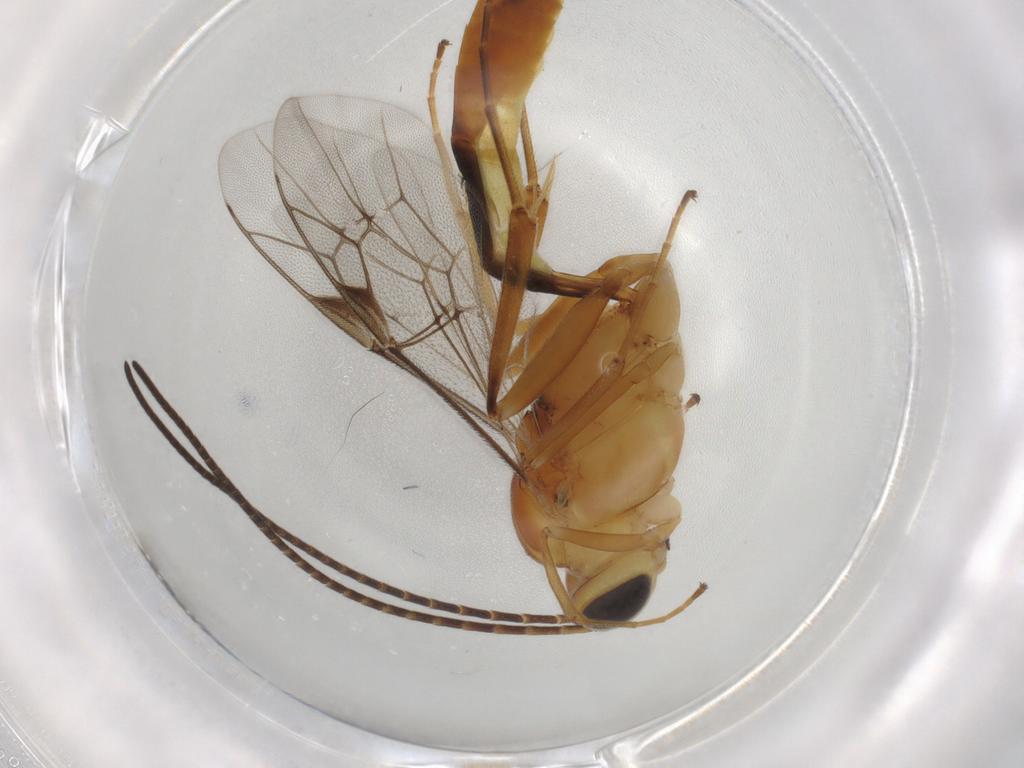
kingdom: Animalia
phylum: Arthropoda
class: Insecta
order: Hymenoptera
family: Ichneumonidae
